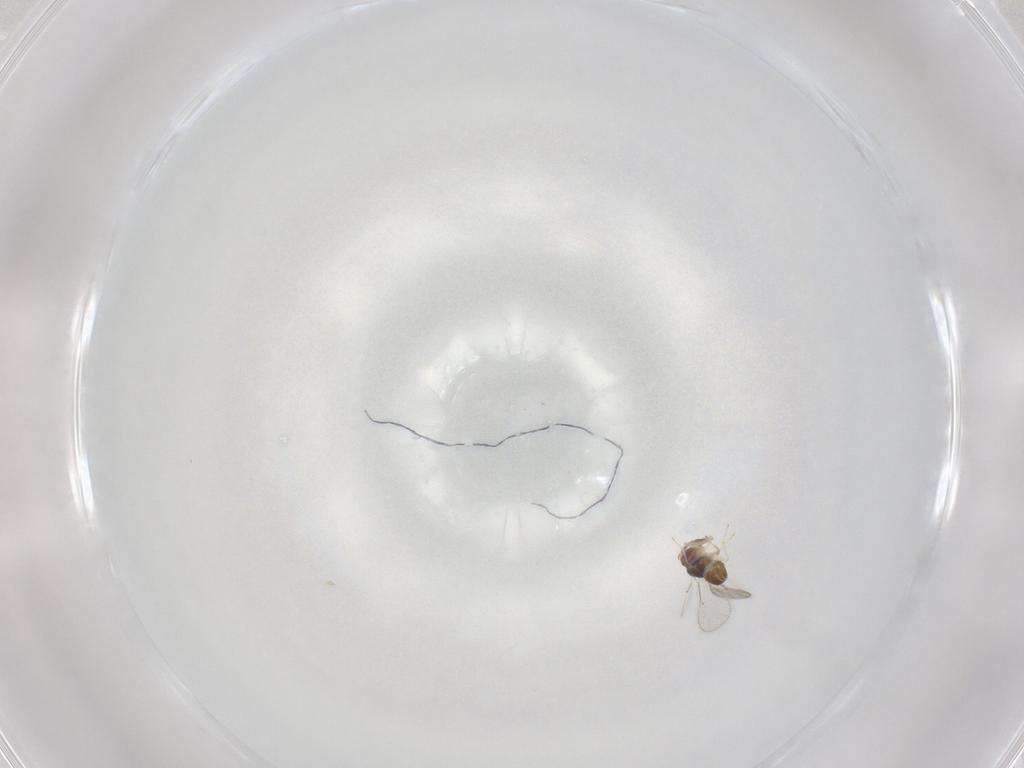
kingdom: Animalia
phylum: Arthropoda
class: Insecta
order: Hymenoptera
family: Eulophidae
